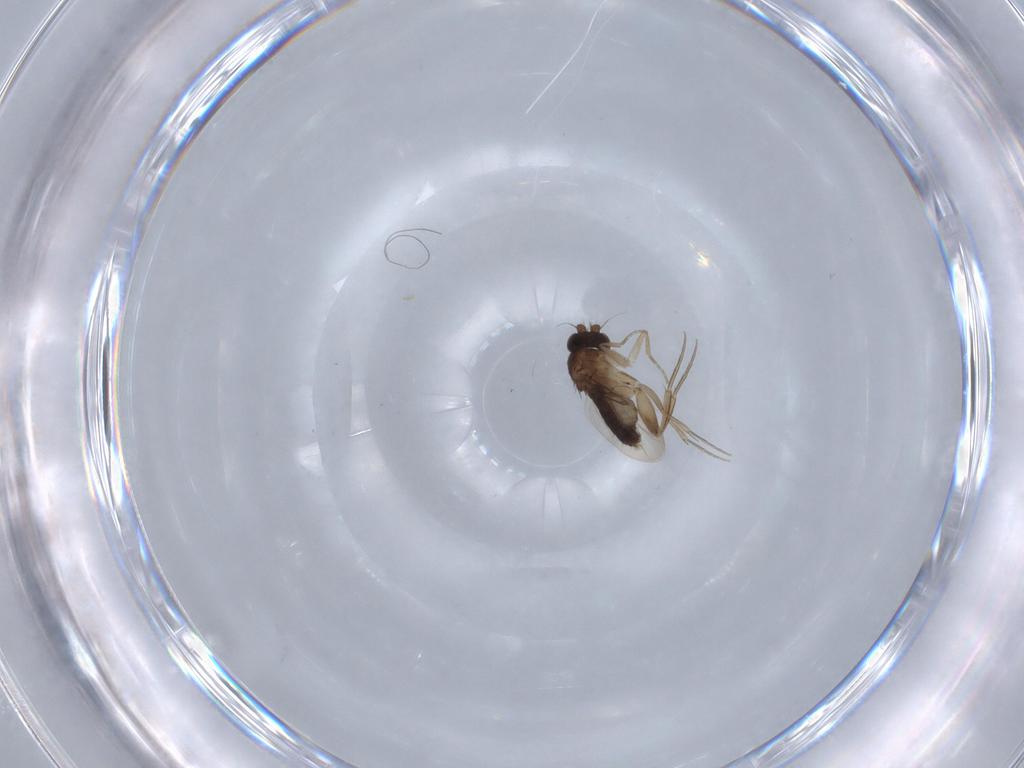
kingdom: Animalia
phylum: Arthropoda
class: Insecta
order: Diptera
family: Phoridae
